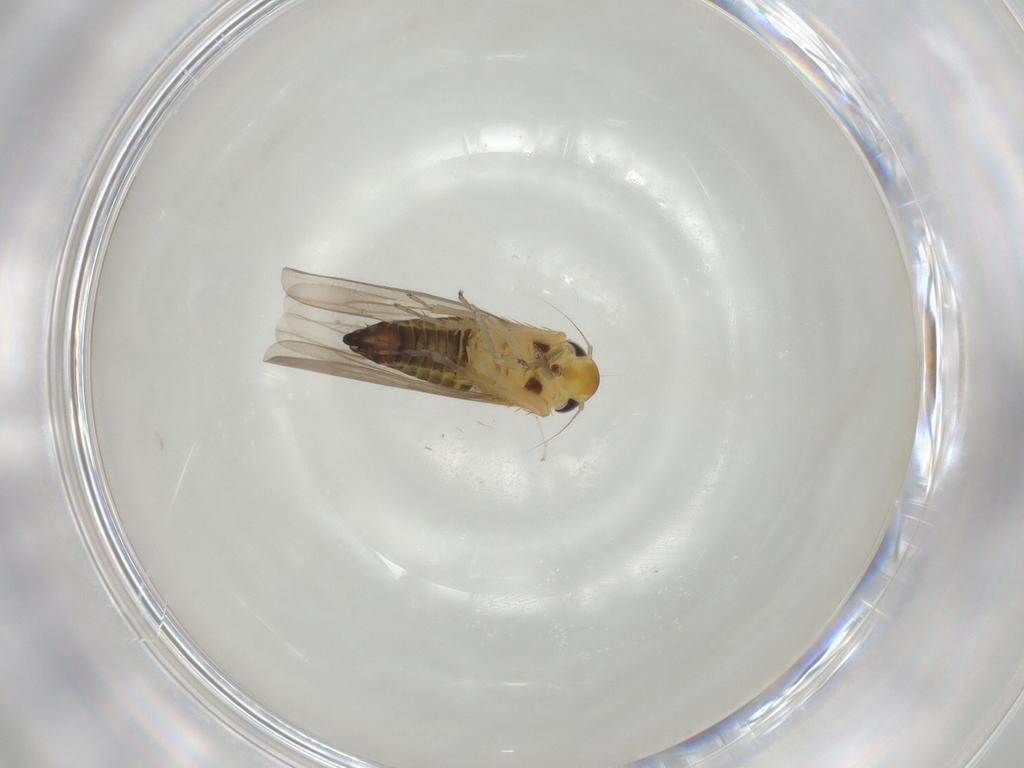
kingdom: Animalia
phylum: Arthropoda
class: Insecta
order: Hemiptera
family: Cicadellidae
